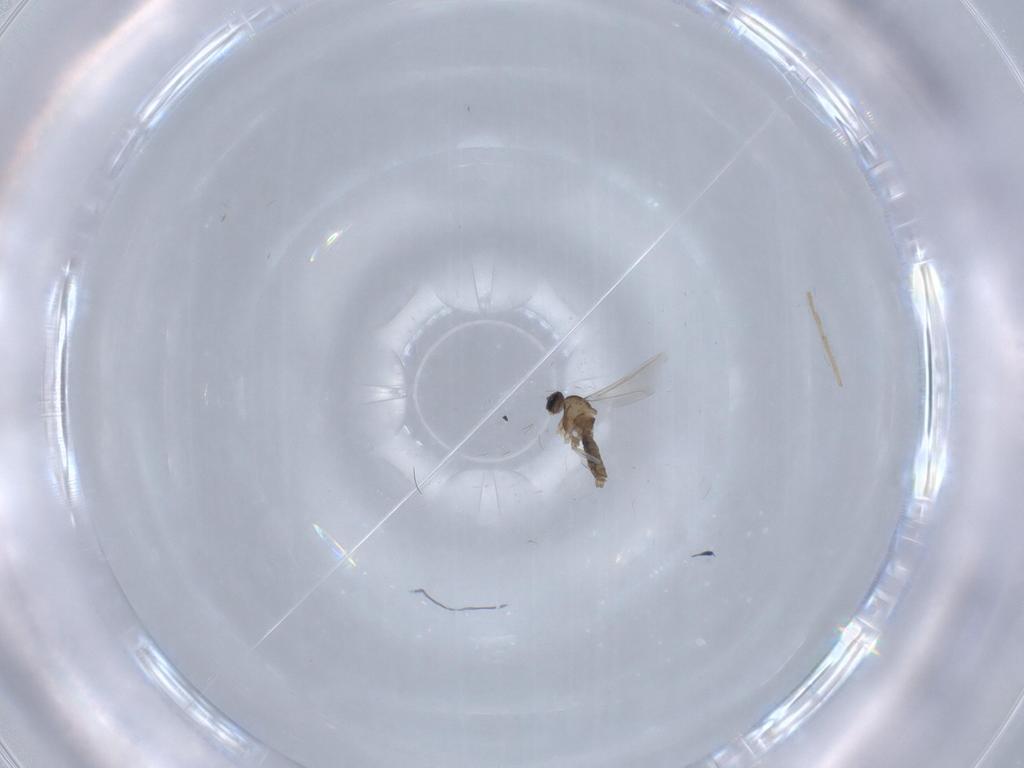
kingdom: Animalia
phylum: Arthropoda
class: Insecta
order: Diptera
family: Cecidomyiidae
